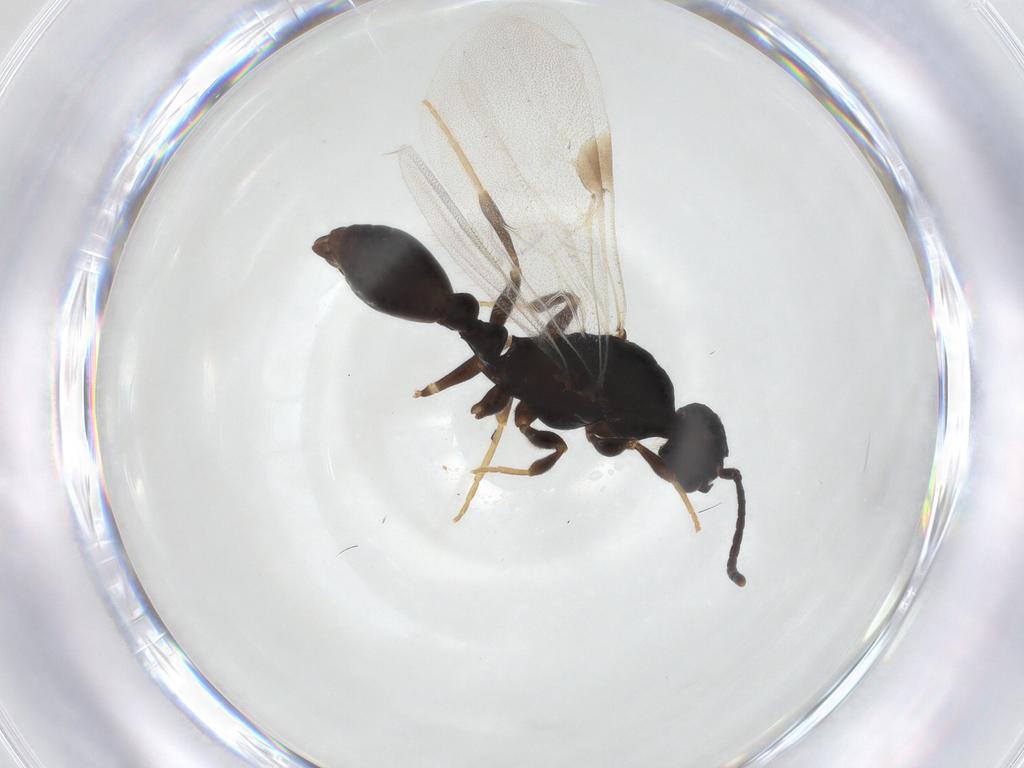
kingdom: Animalia
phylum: Arthropoda
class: Insecta
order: Hymenoptera
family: Formicidae
